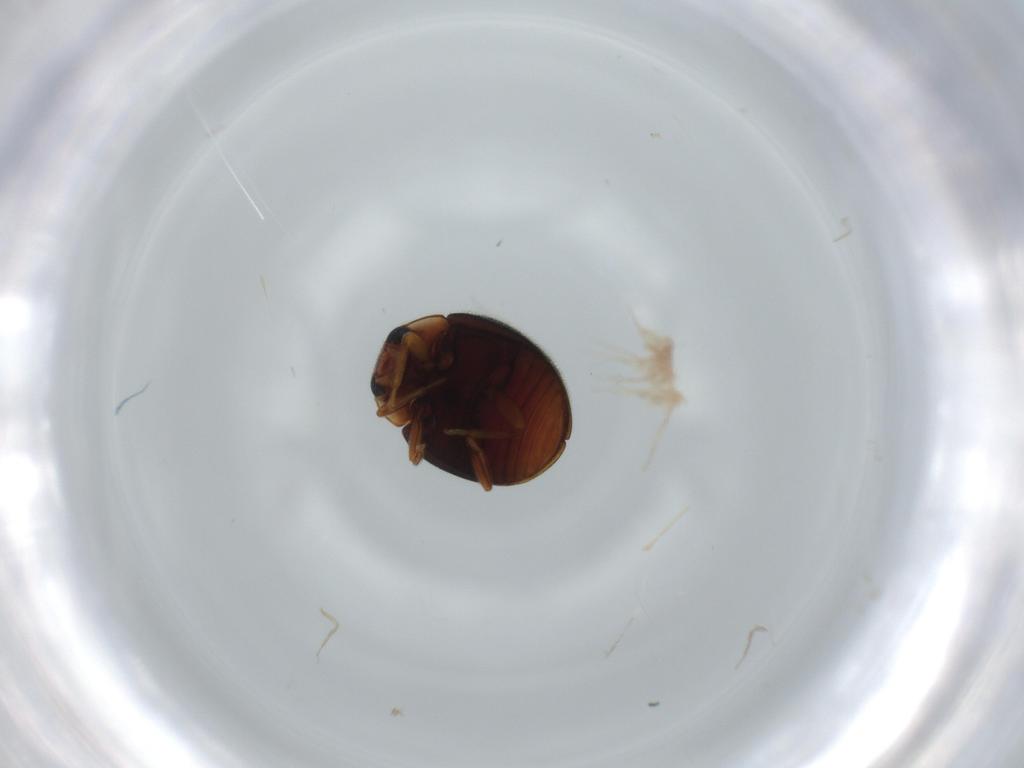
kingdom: Animalia
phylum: Arthropoda
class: Insecta
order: Coleoptera
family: Coccinellidae
